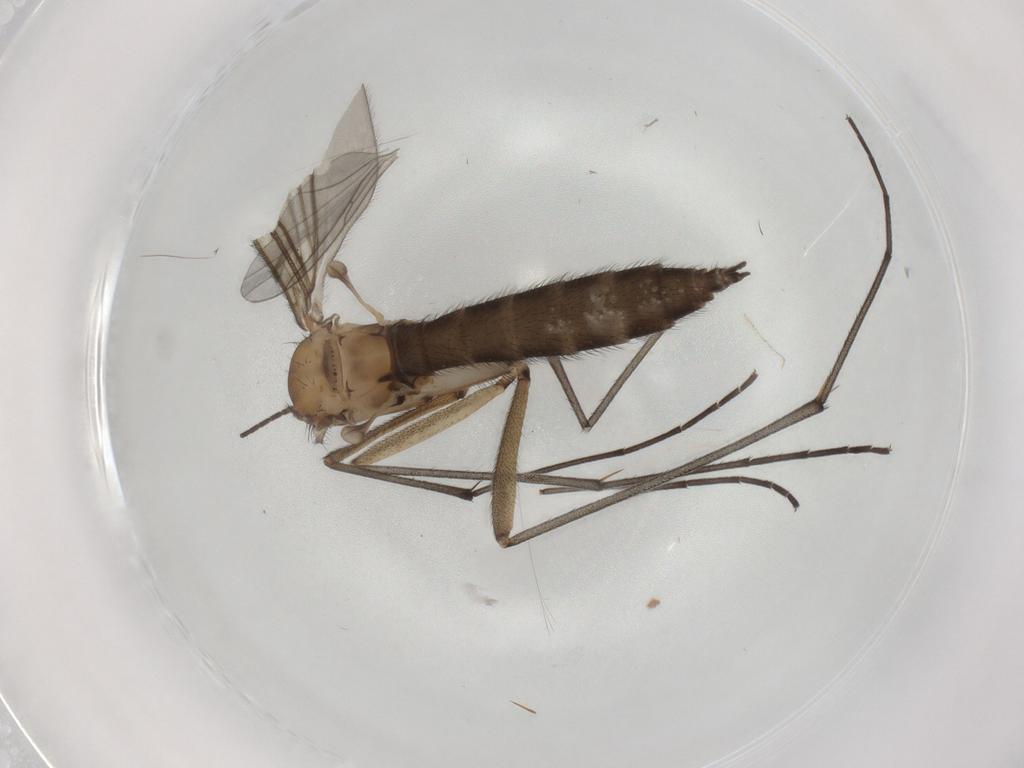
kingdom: Animalia
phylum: Arthropoda
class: Insecta
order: Diptera
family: Sciaridae
